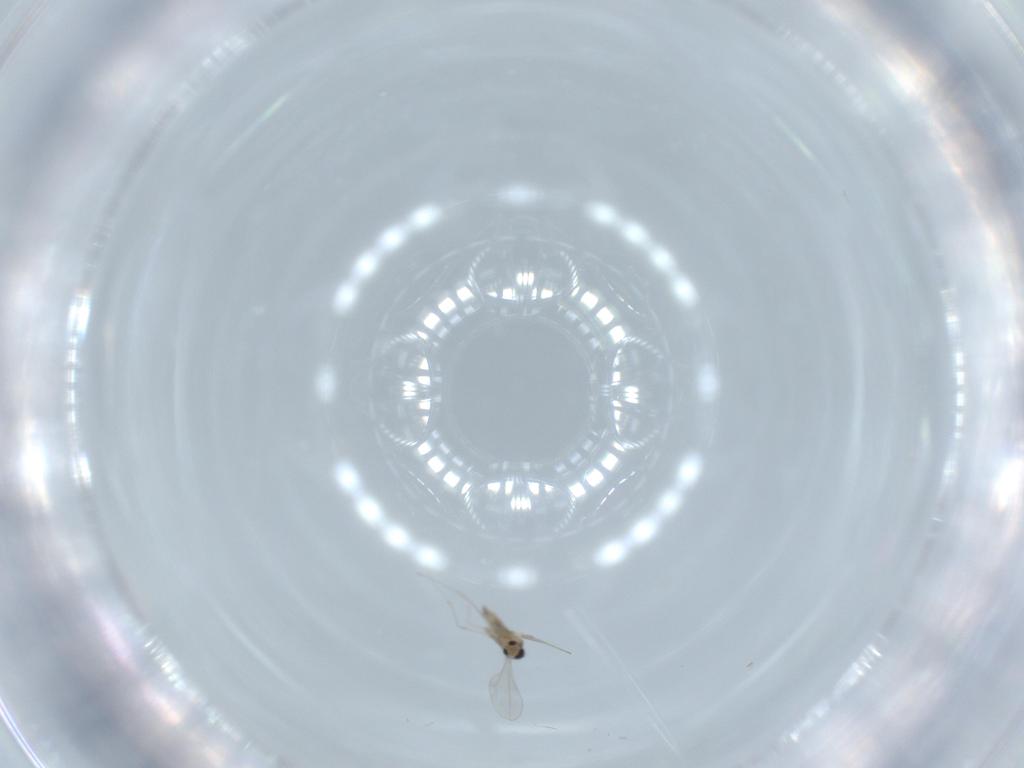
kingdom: Animalia
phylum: Arthropoda
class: Insecta
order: Diptera
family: Cecidomyiidae
